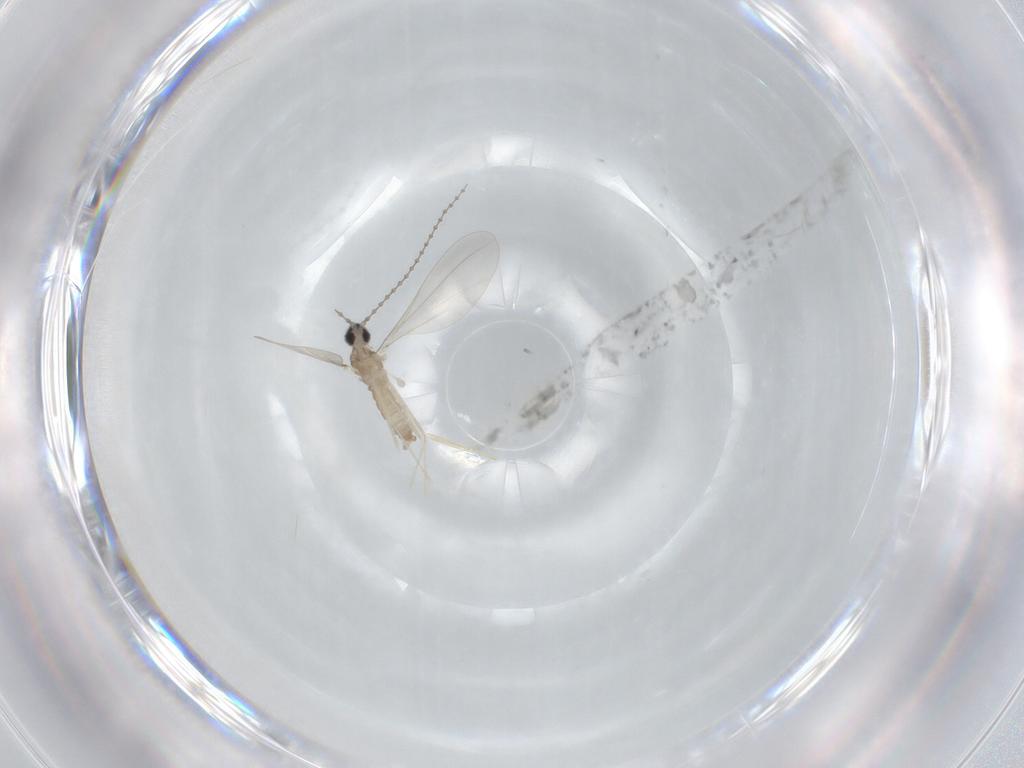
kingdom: Animalia
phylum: Arthropoda
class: Insecta
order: Diptera
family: Cecidomyiidae
